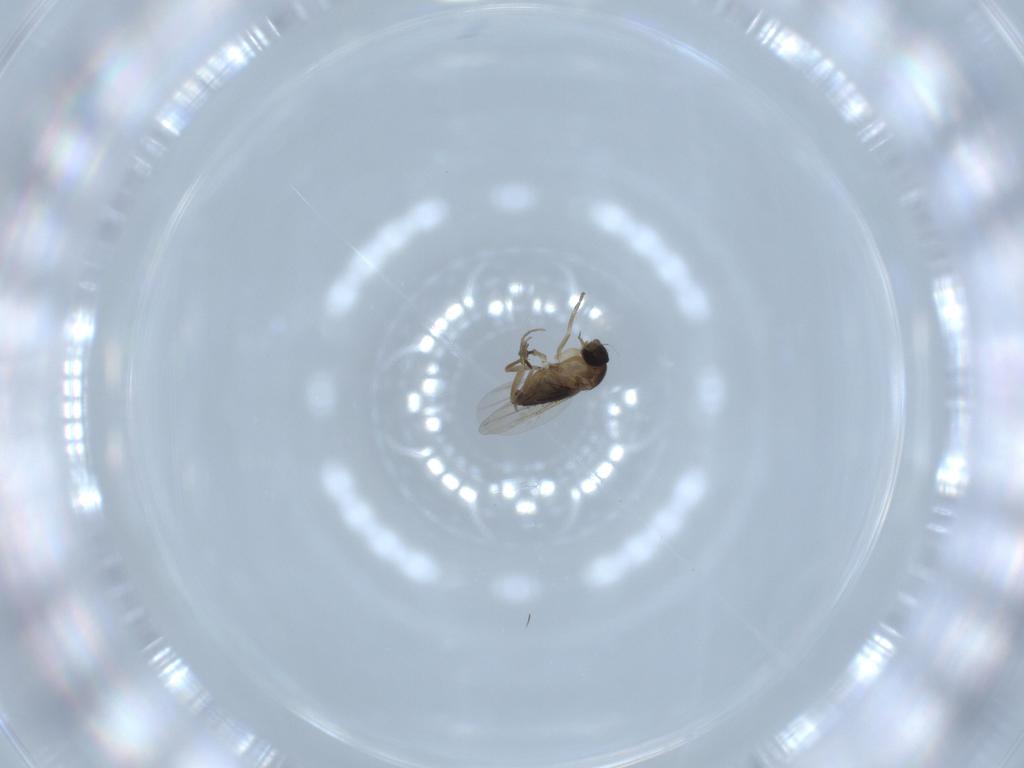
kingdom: Animalia
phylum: Arthropoda
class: Insecta
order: Diptera
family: Phoridae
